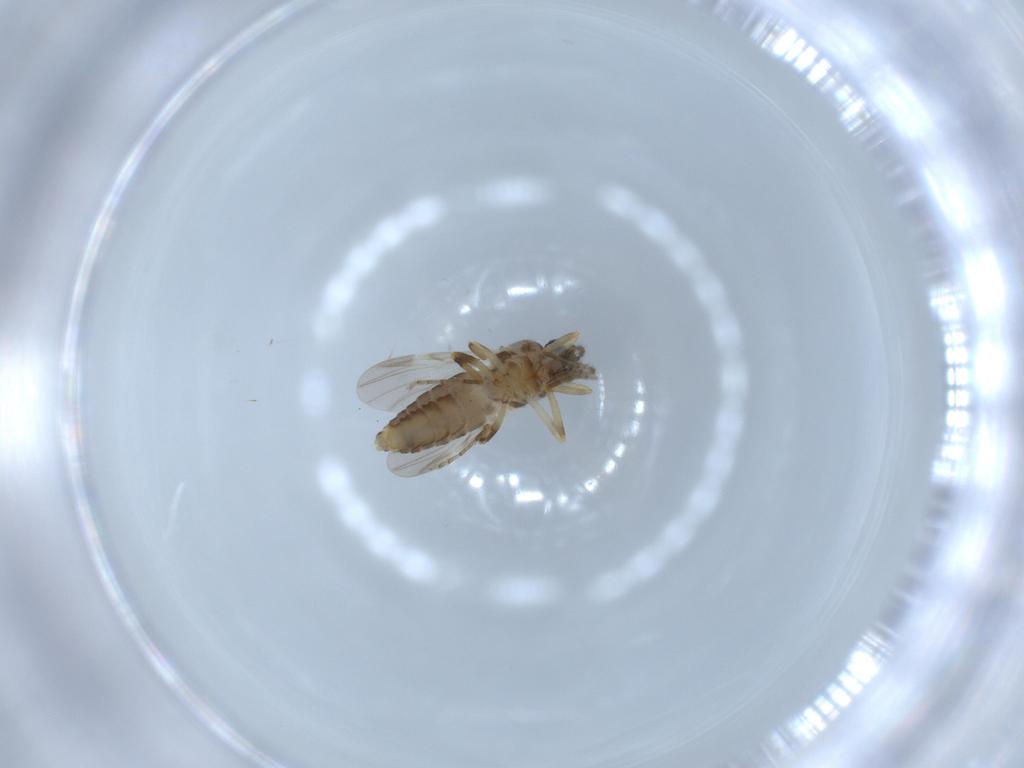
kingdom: Animalia
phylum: Arthropoda
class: Insecta
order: Diptera
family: Ceratopogonidae
